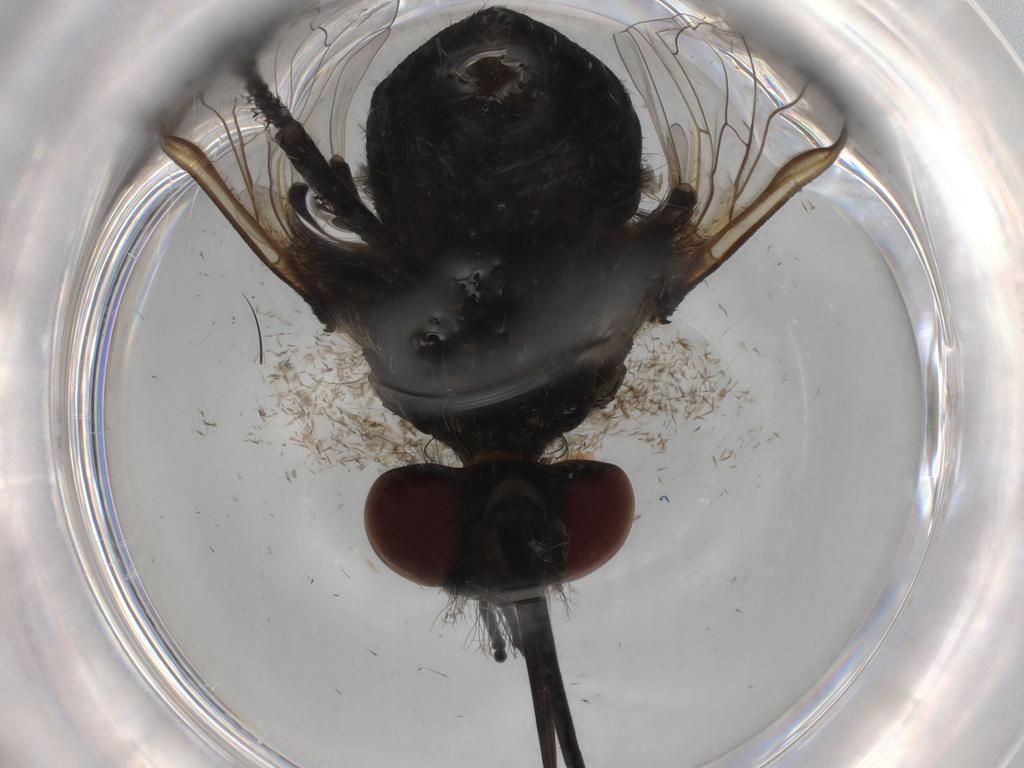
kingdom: Animalia
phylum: Arthropoda
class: Insecta
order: Diptera
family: Bombyliidae
